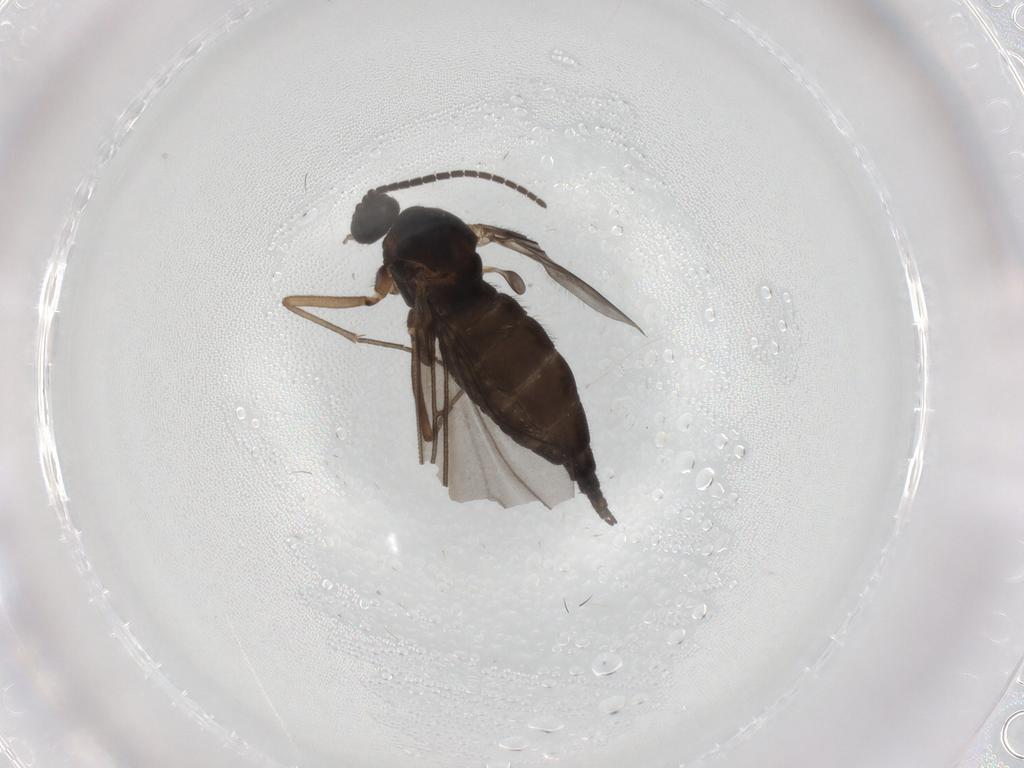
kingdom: Animalia
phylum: Arthropoda
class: Insecta
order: Diptera
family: Sciaridae
